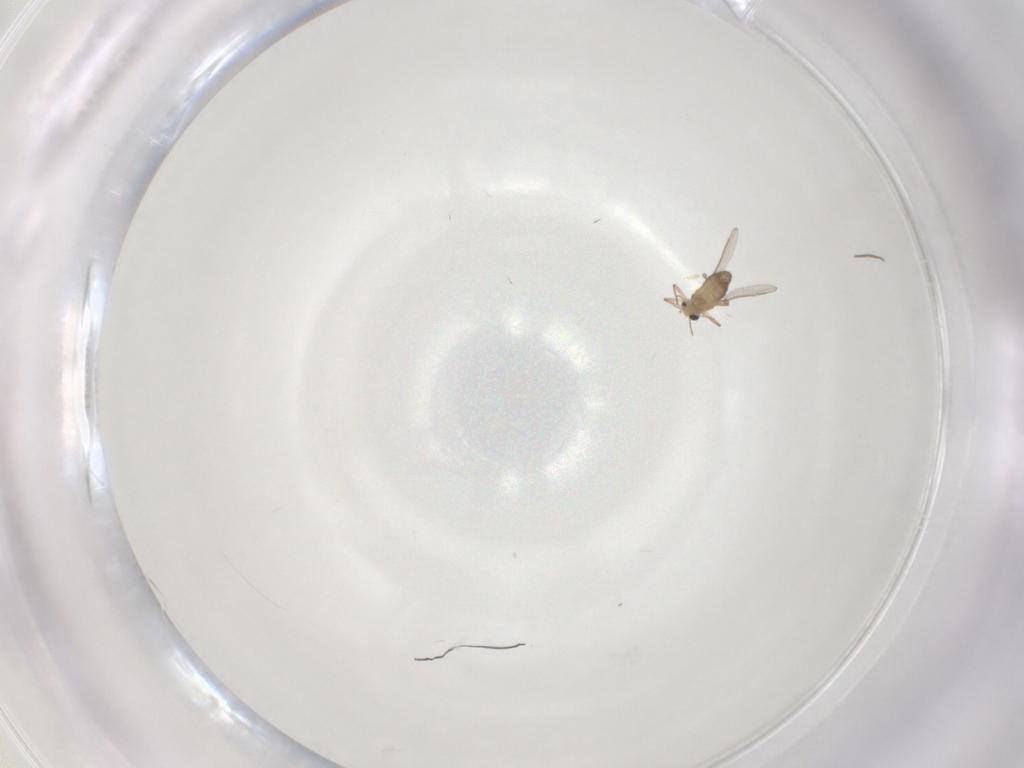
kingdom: Animalia
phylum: Arthropoda
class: Insecta
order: Diptera
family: Chironomidae
